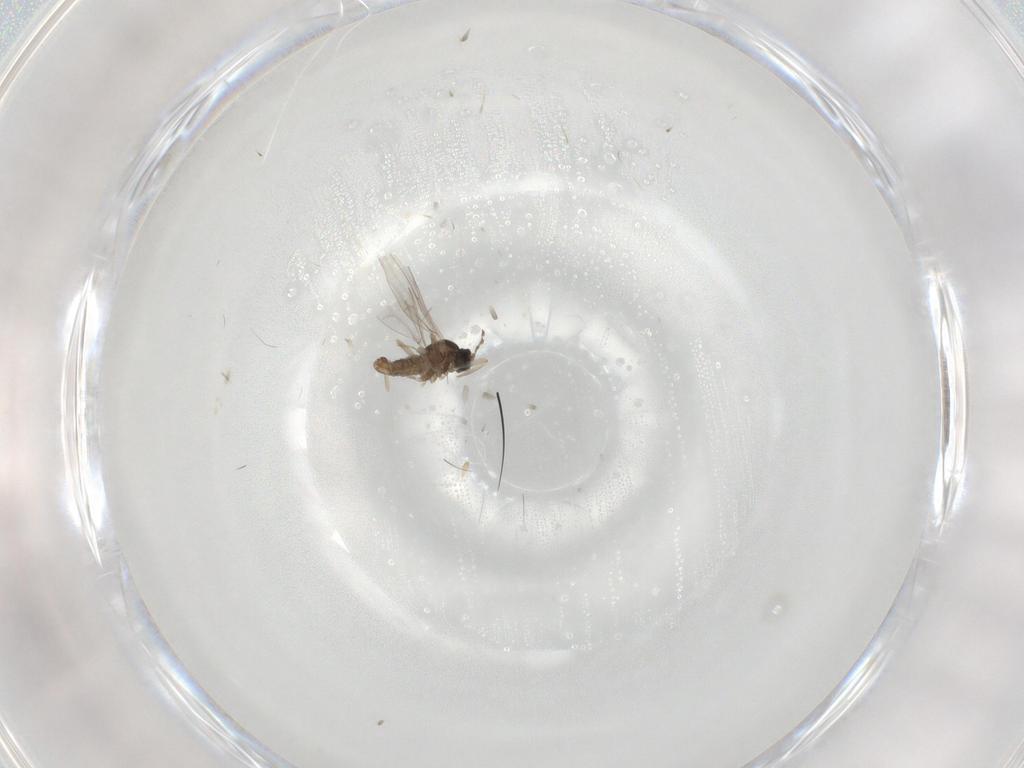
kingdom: Animalia
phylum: Arthropoda
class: Insecta
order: Diptera
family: Cecidomyiidae
